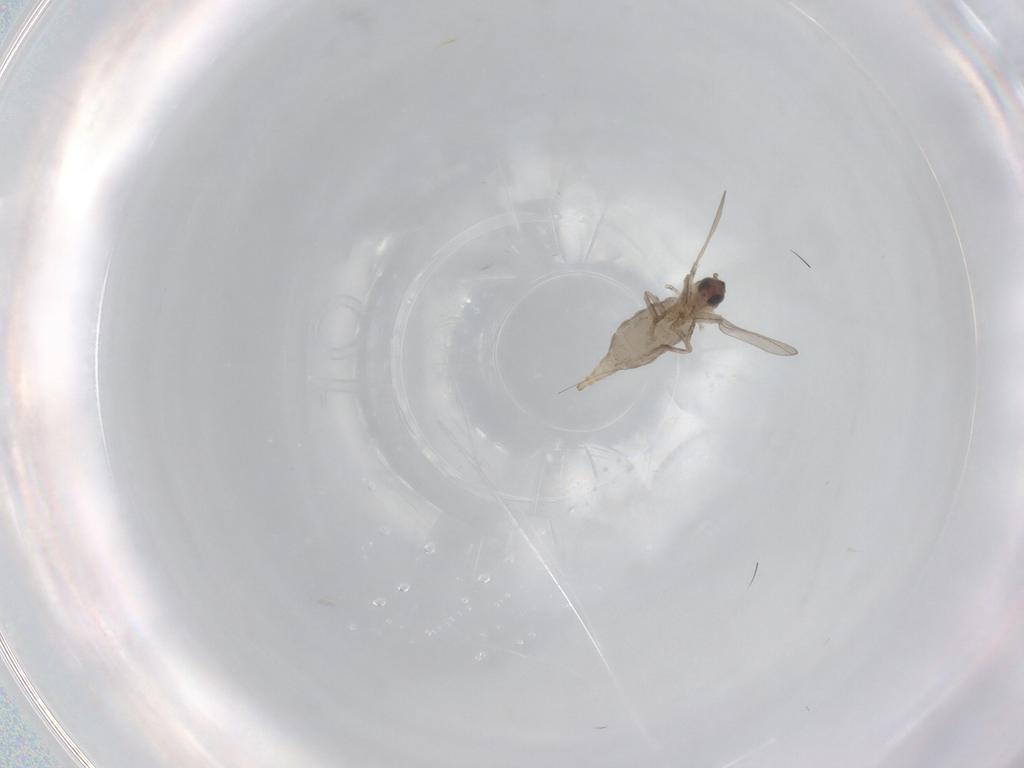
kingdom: Animalia
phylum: Arthropoda
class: Insecta
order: Diptera
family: Cecidomyiidae
